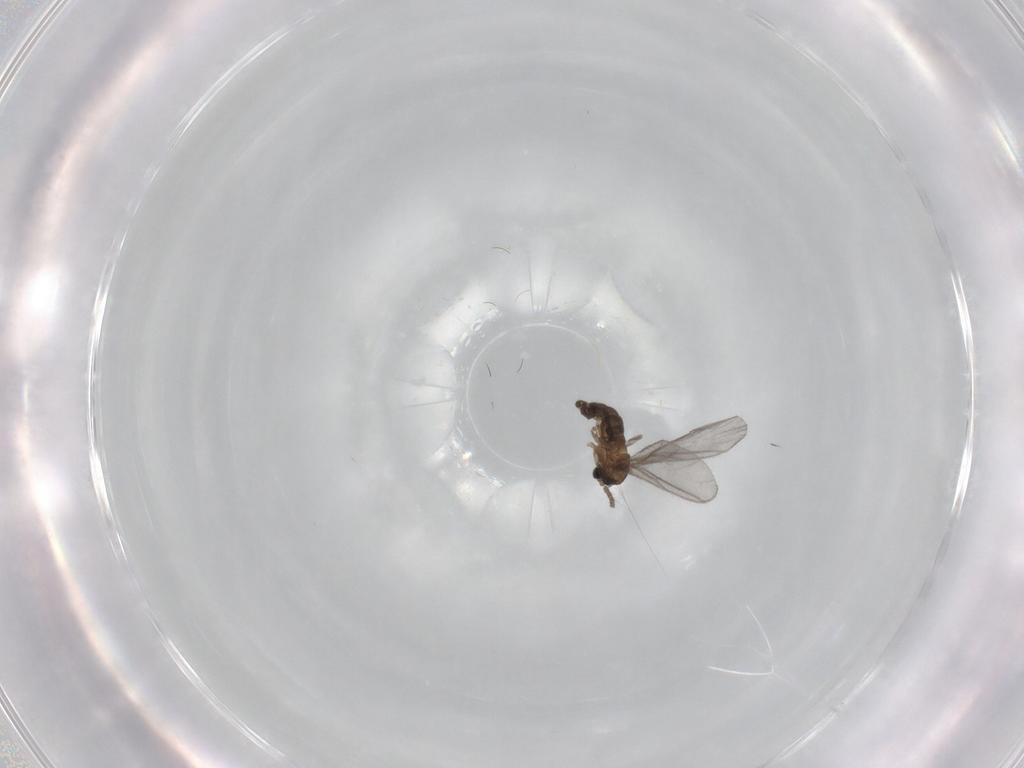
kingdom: Animalia
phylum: Arthropoda
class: Insecta
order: Diptera
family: Sciaridae
